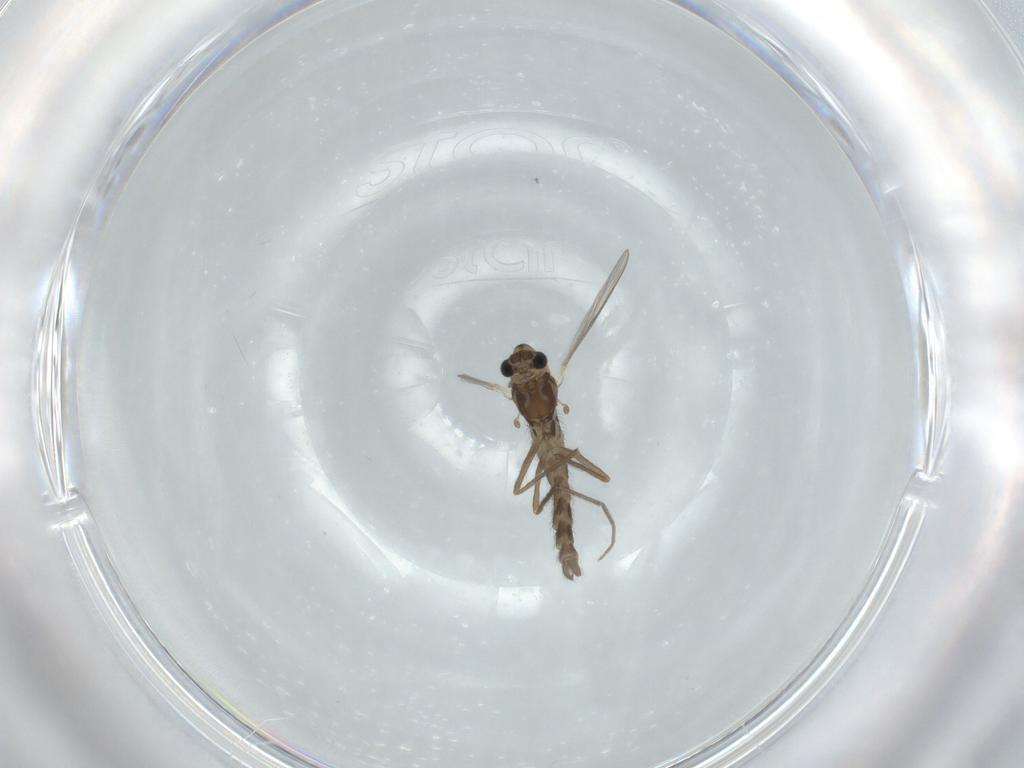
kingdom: Animalia
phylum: Arthropoda
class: Insecta
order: Diptera
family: Chironomidae
